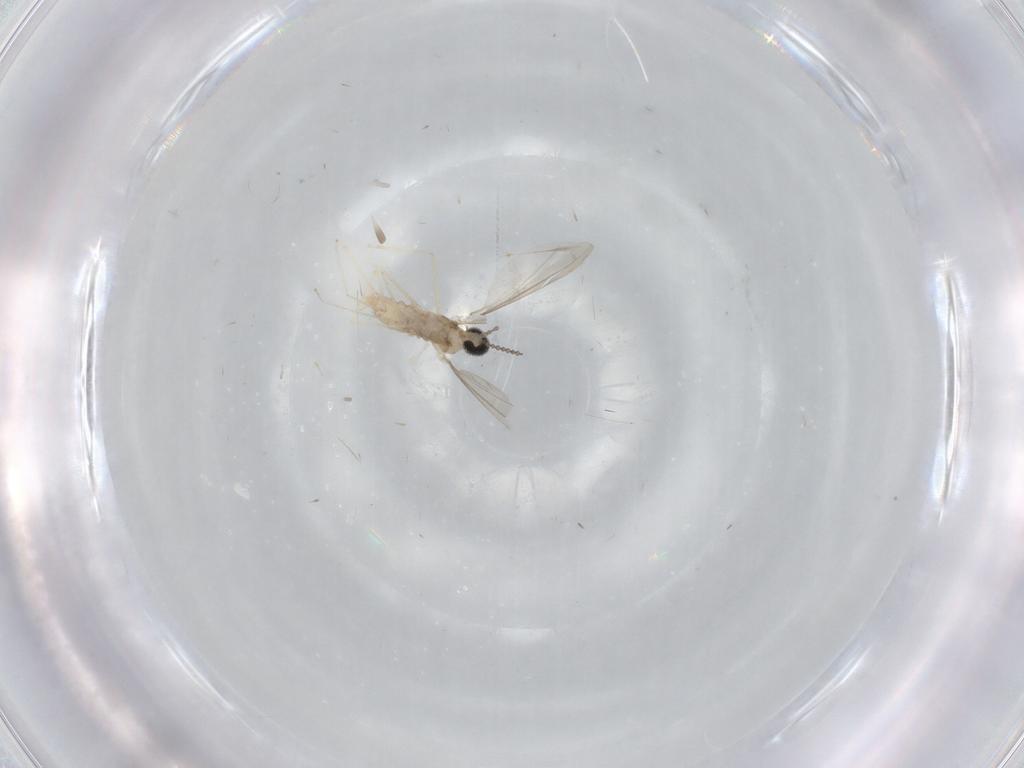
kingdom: Animalia
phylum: Arthropoda
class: Insecta
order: Diptera
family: Cecidomyiidae
